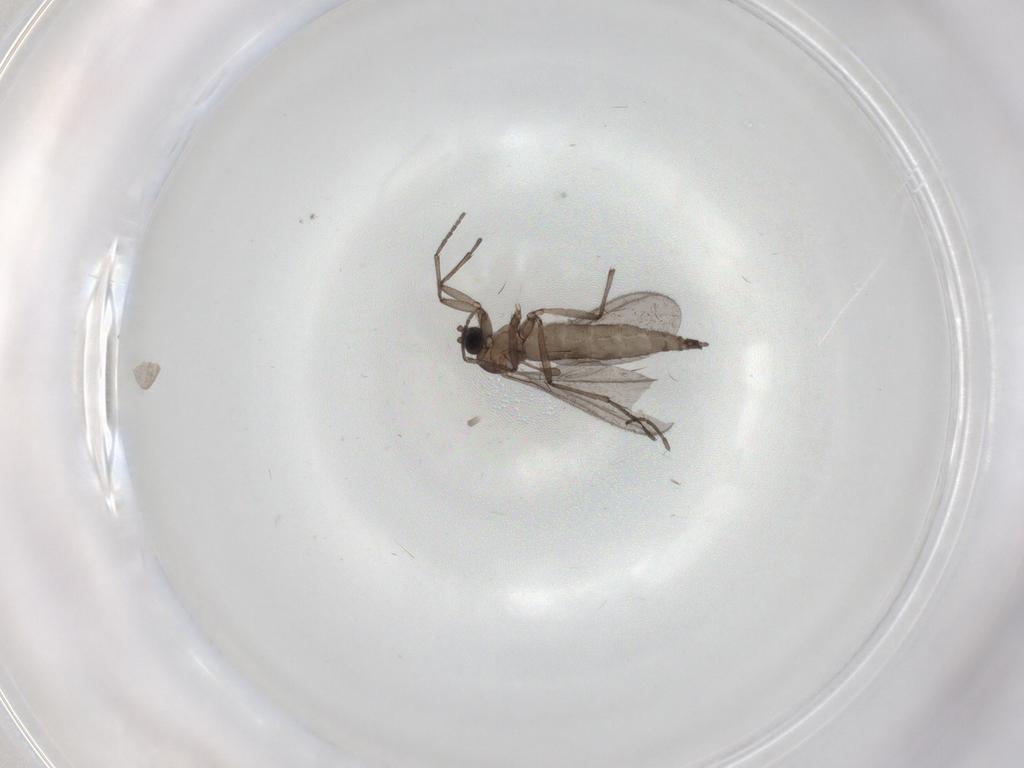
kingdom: Animalia
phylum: Arthropoda
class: Insecta
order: Diptera
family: Sciaridae
